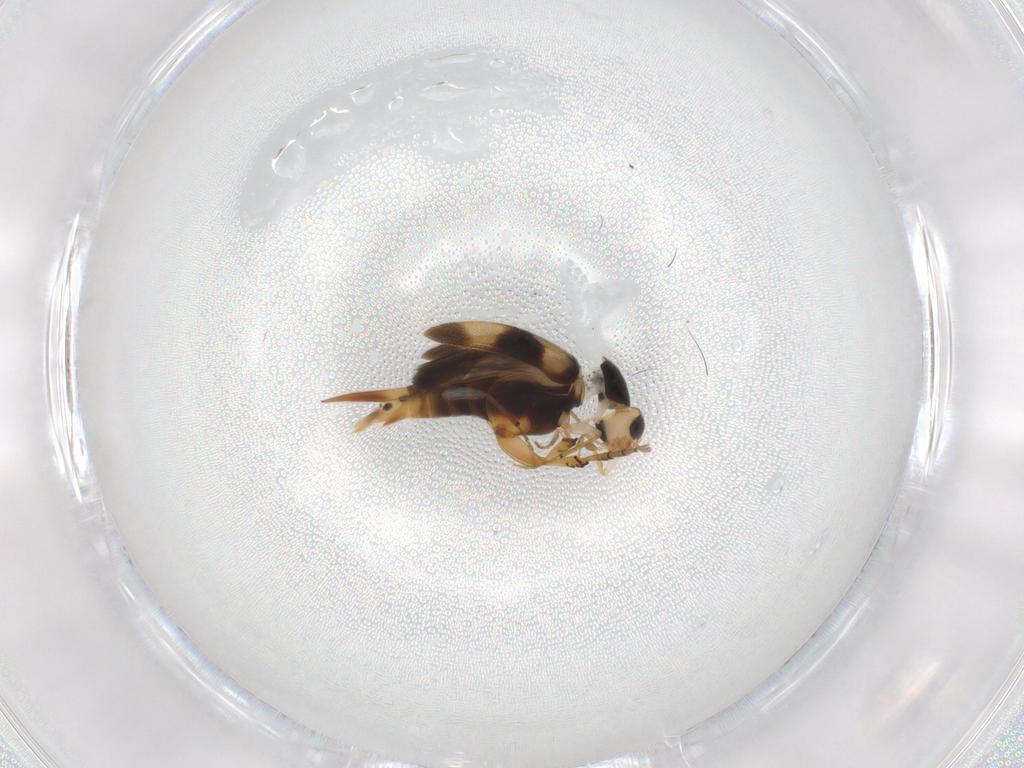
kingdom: Animalia
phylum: Arthropoda
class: Insecta
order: Coleoptera
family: Mordellidae
